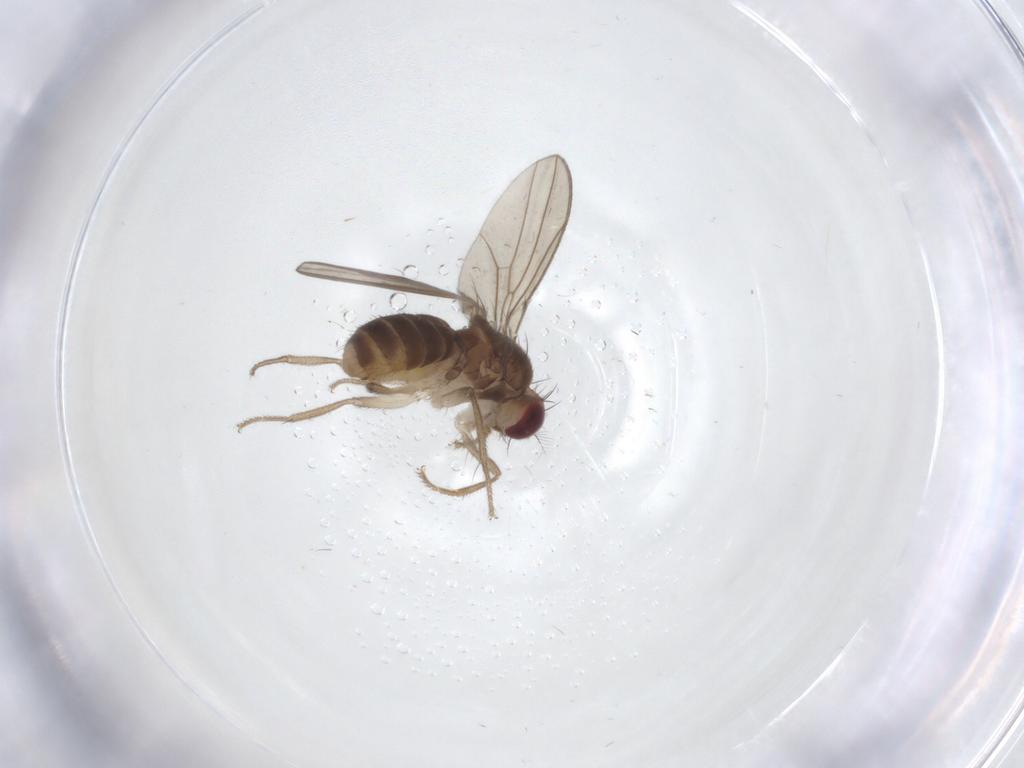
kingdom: Animalia
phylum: Arthropoda
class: Insecta
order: Diptera
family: Drosophilidae
